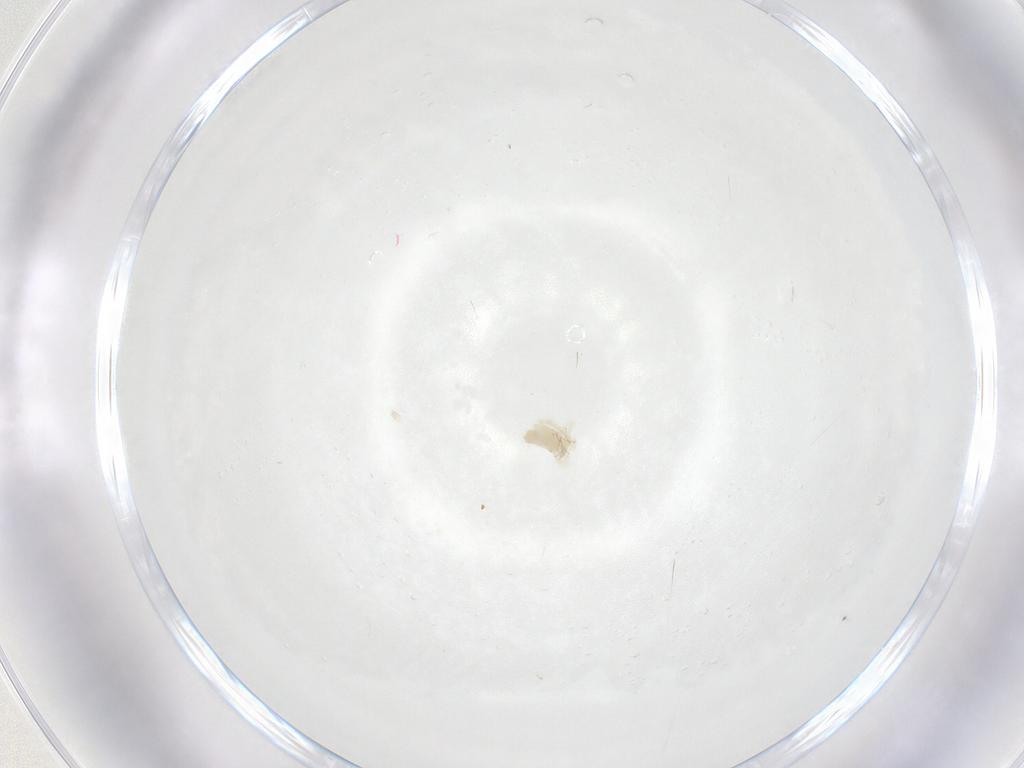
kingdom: Animalia
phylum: Arthropoda
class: Arachnida
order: Trombidiformes
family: Anystidae
